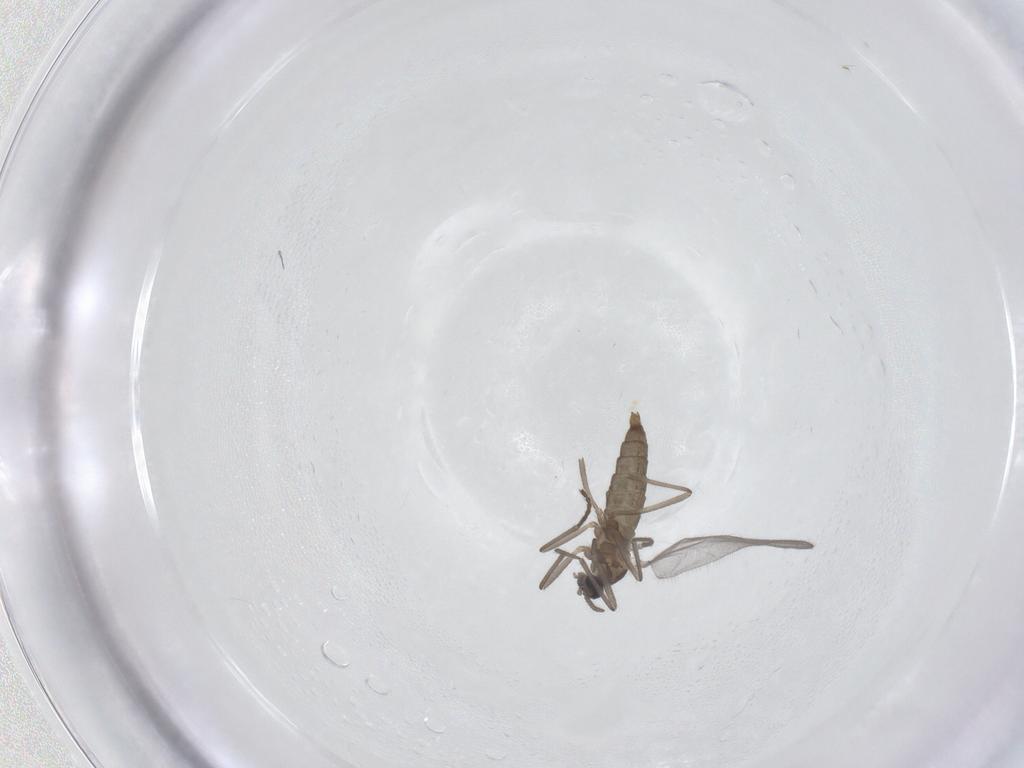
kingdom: Animalia
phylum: Arthropoda
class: Insecta
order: Diptera
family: Cecidomyiidae
